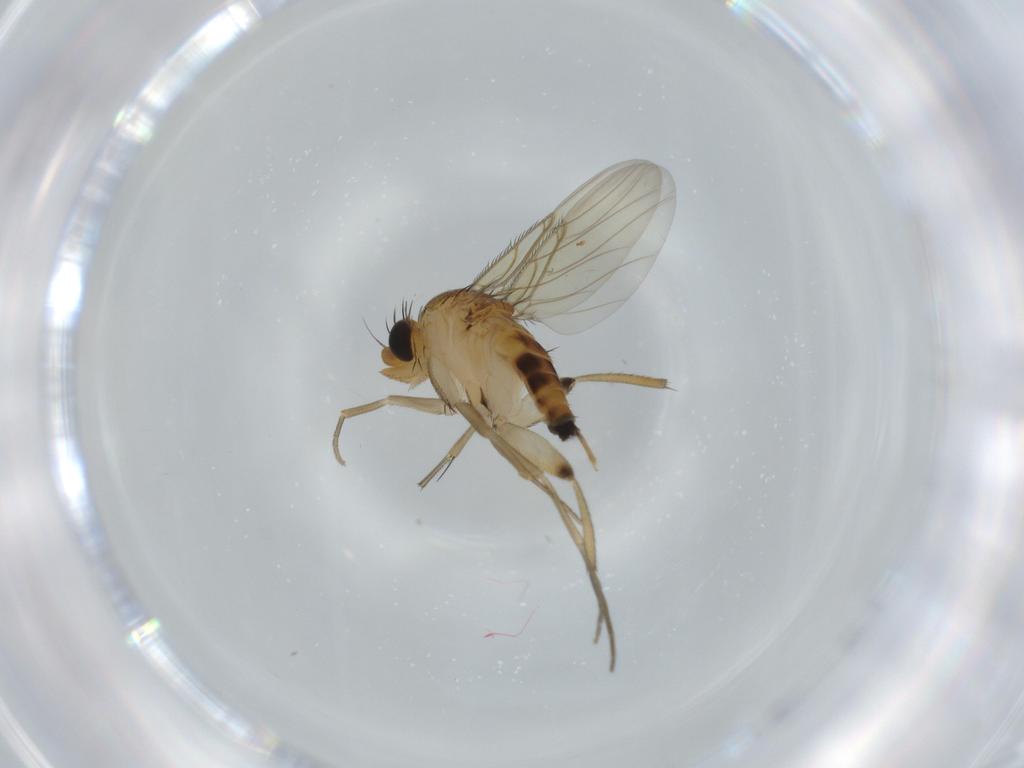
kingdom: Animalia
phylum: Arthropoda
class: Insecta
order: Diptera
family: Phoridae
